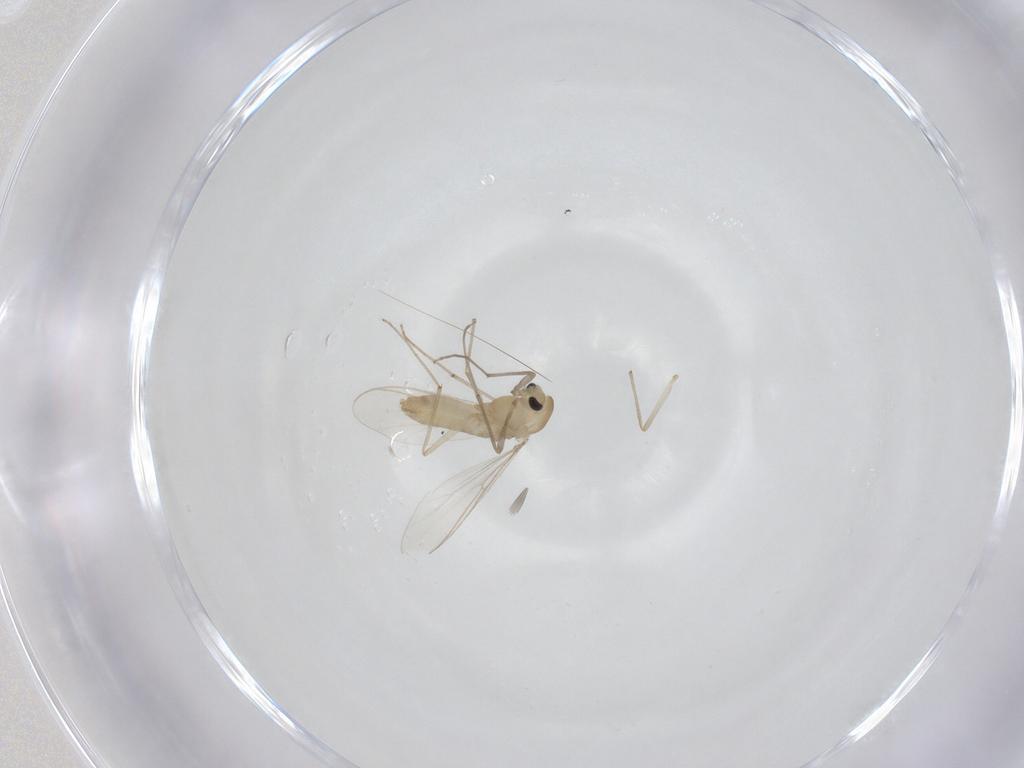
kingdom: Animalia
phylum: Arthropoda
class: Insecta
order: Diptera
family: Chironomidae
